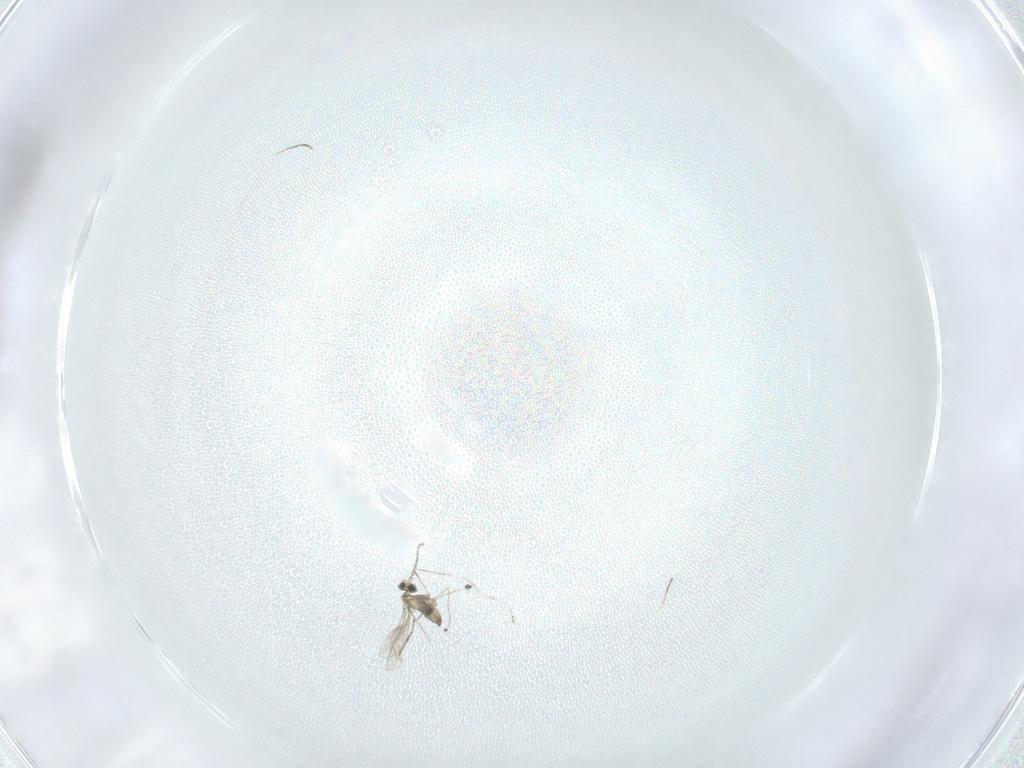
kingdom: Animalia
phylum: Arthropoda
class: Insecta
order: Diptera
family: Cecidomyiidae
